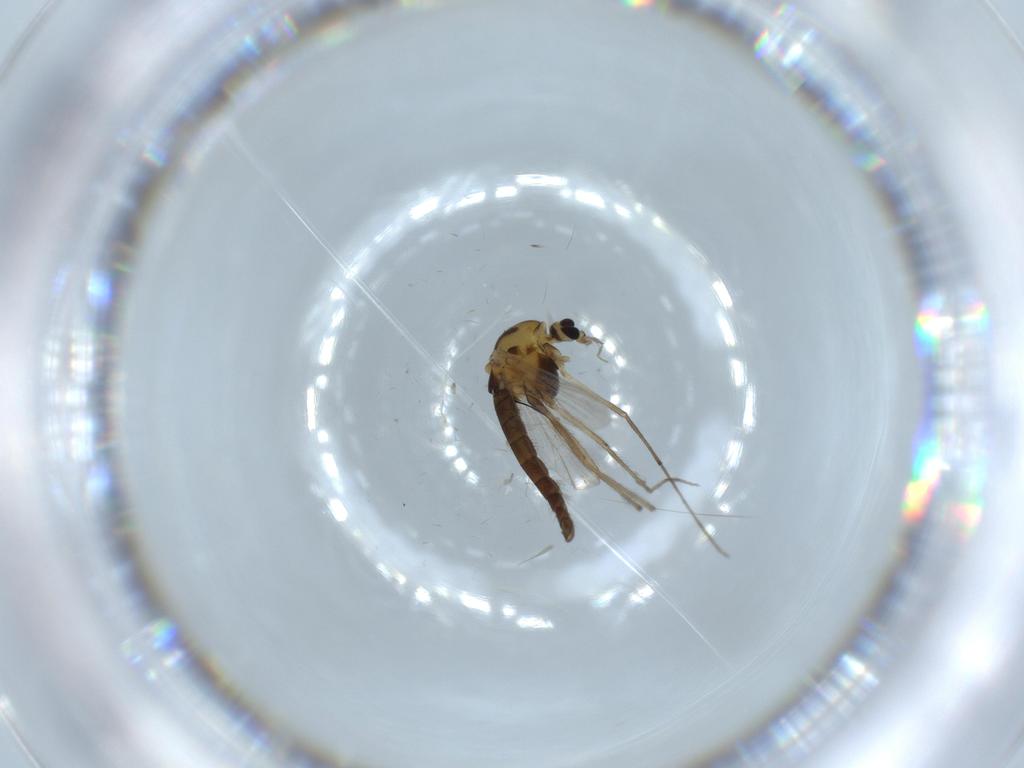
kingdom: Animalia
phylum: Arthropoda
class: Insecta
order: Diptera
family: Chironomidae
